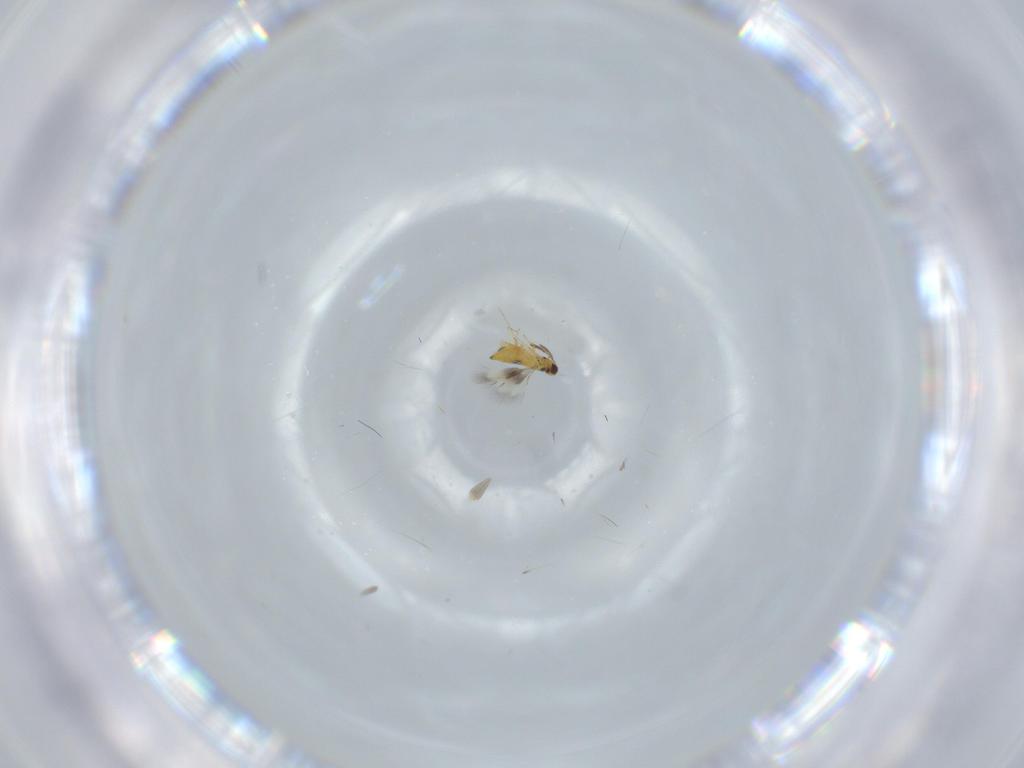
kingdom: Animalia
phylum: Arthropoda
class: Insecta
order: Hymenoptera
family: Signiphoridae
